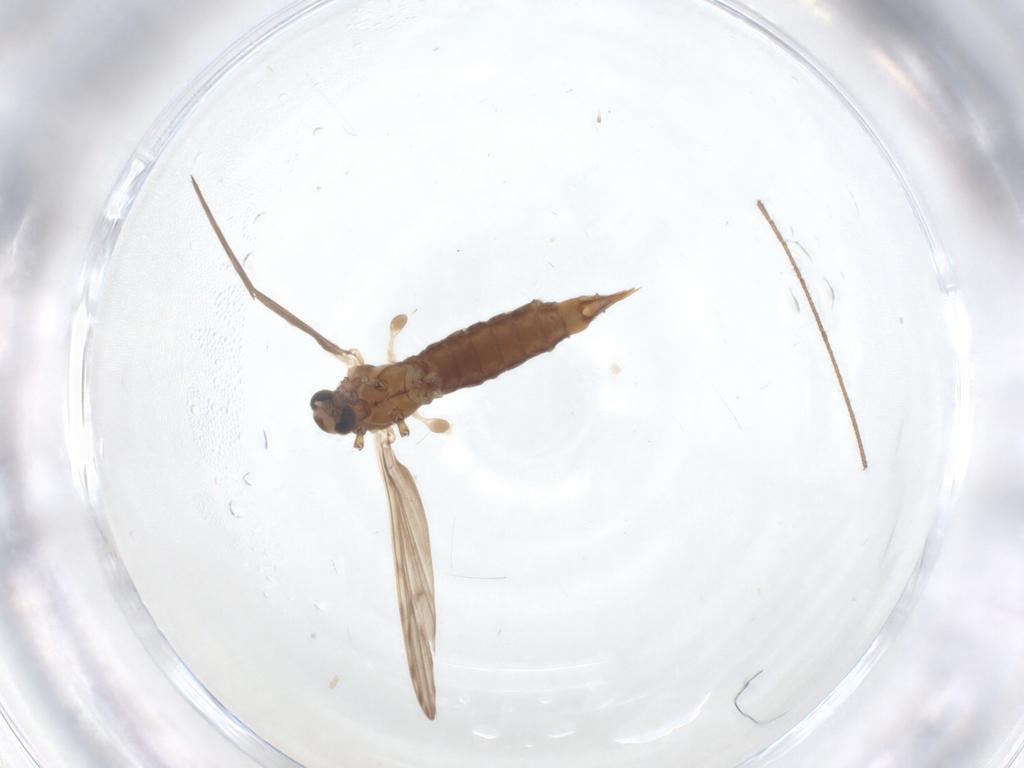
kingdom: Animalia
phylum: Arthropoda
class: Insecta
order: Diptera
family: Limoniidae
